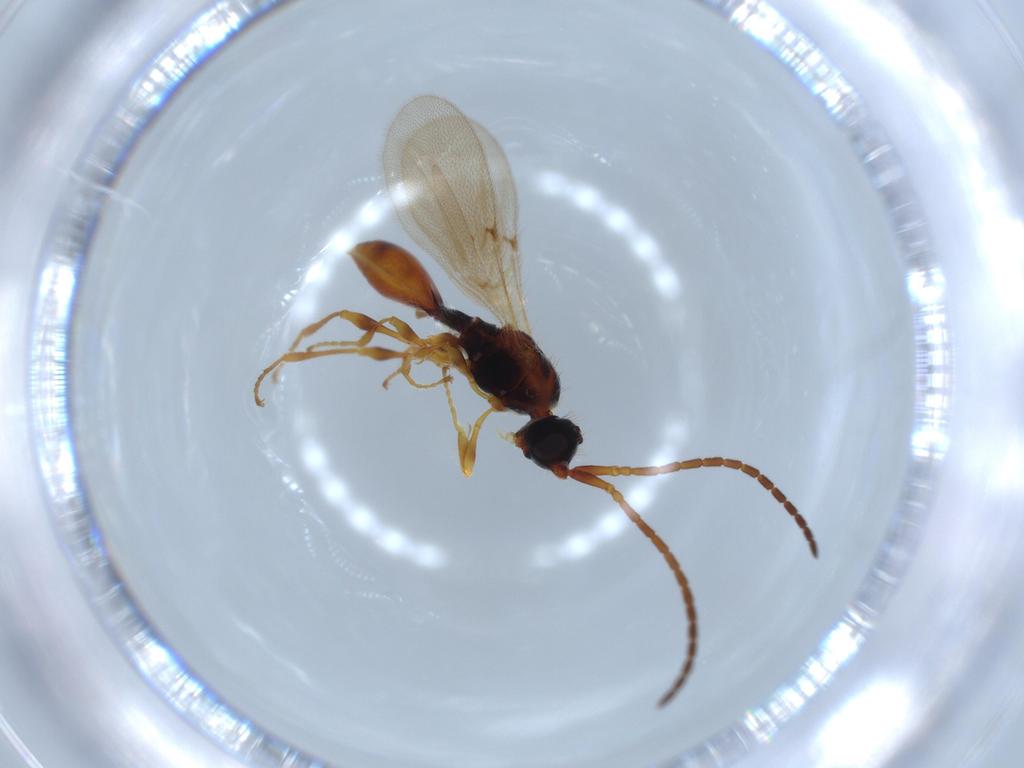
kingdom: Animalia
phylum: Arthropoda
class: Insecta
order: Hymenoptera
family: Diapriidae
